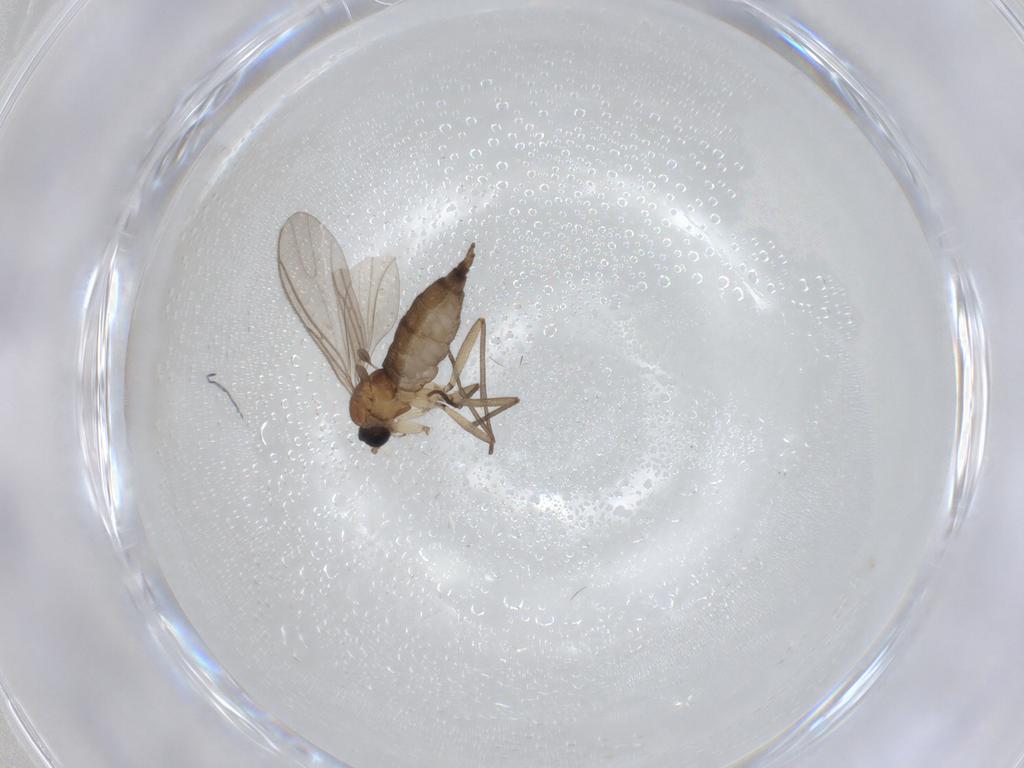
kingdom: Animalia
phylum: Arthropoda
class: Insecta
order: Diptera
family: Sciaridae
